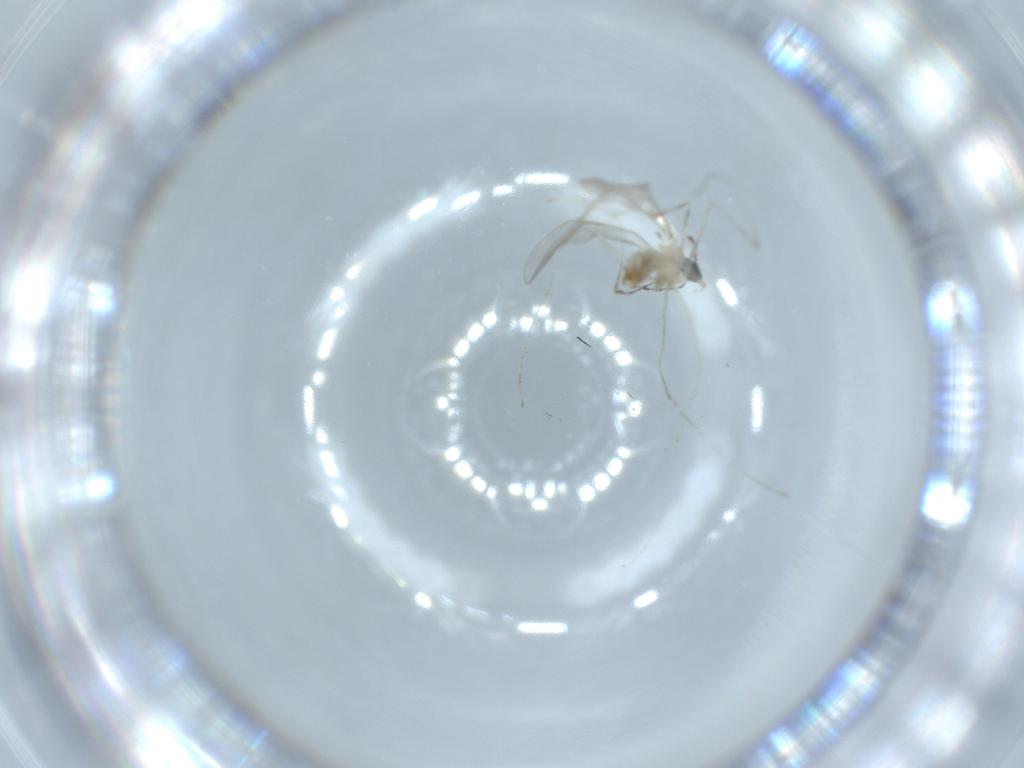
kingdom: Animalia
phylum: Arthropoda
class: Insecta
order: Diptera
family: Cecidomyiidae
